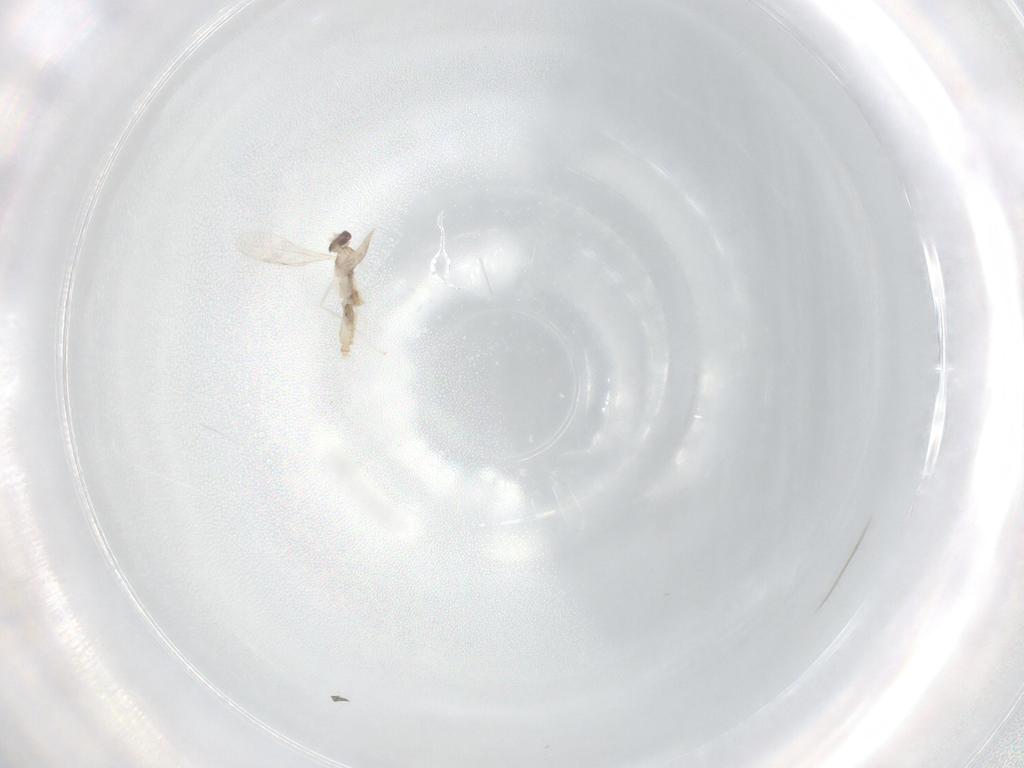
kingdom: Animalia
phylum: Arthropoda
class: Insecta
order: Diptera
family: Cecidomyiidae
